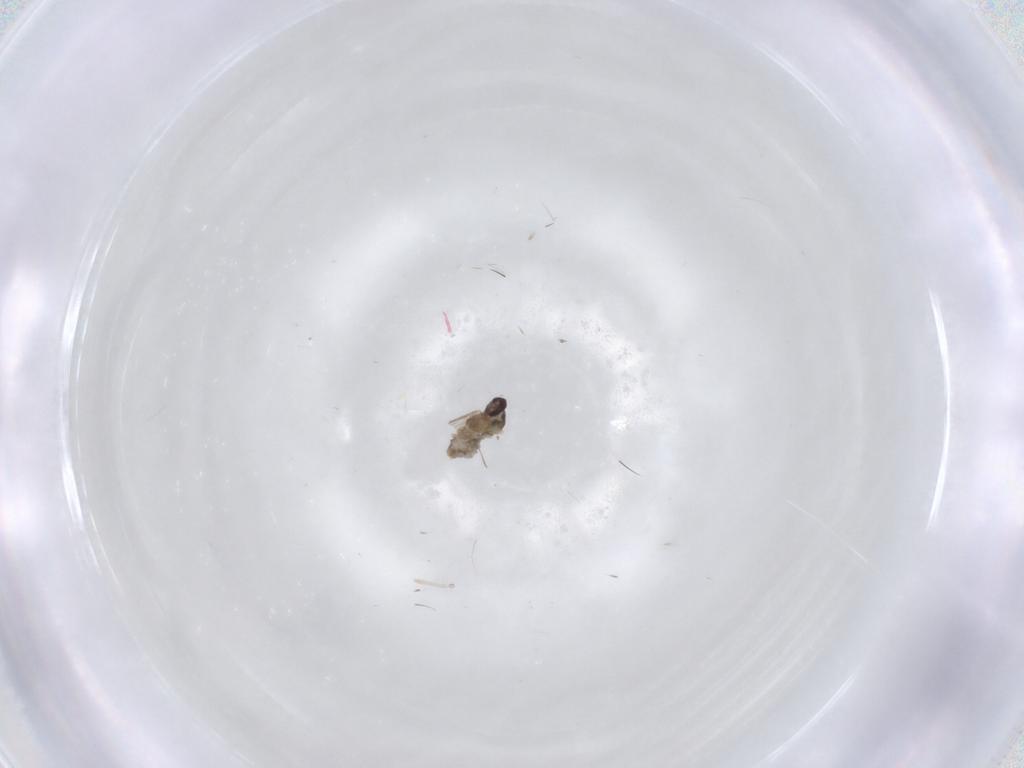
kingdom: Animalia
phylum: Arthropoda
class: Insecta
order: Diptera
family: Cecidomyiidae
